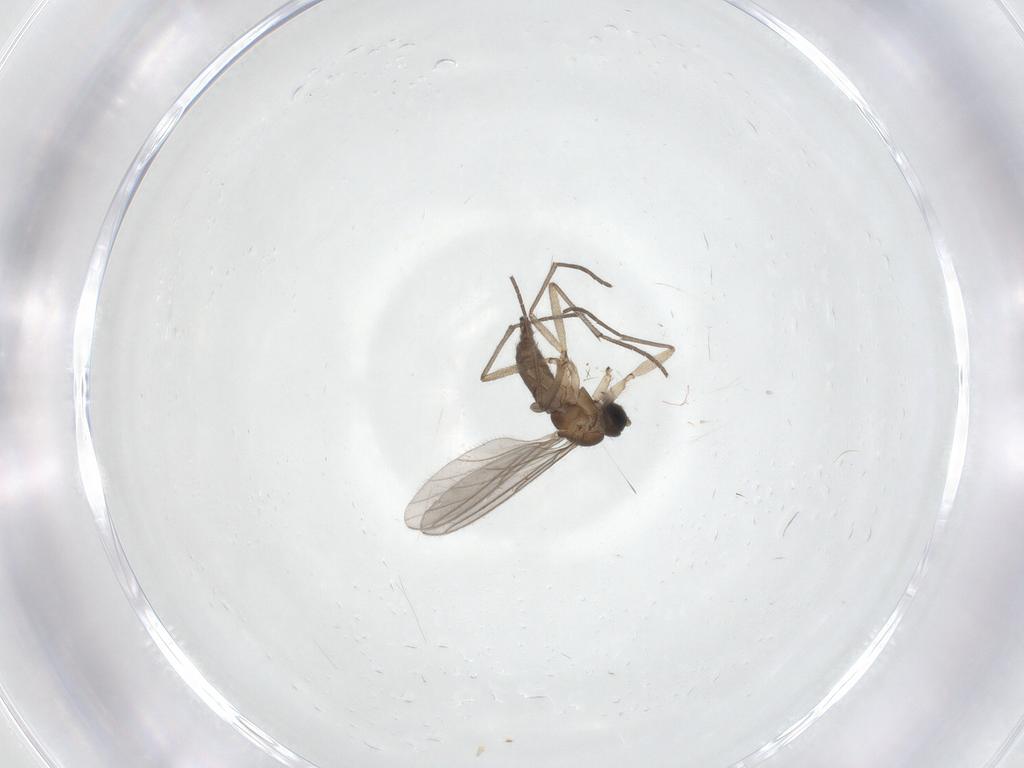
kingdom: Animalia
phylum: Arthropoda
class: Insecta
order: Diptera
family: Sciaridae
